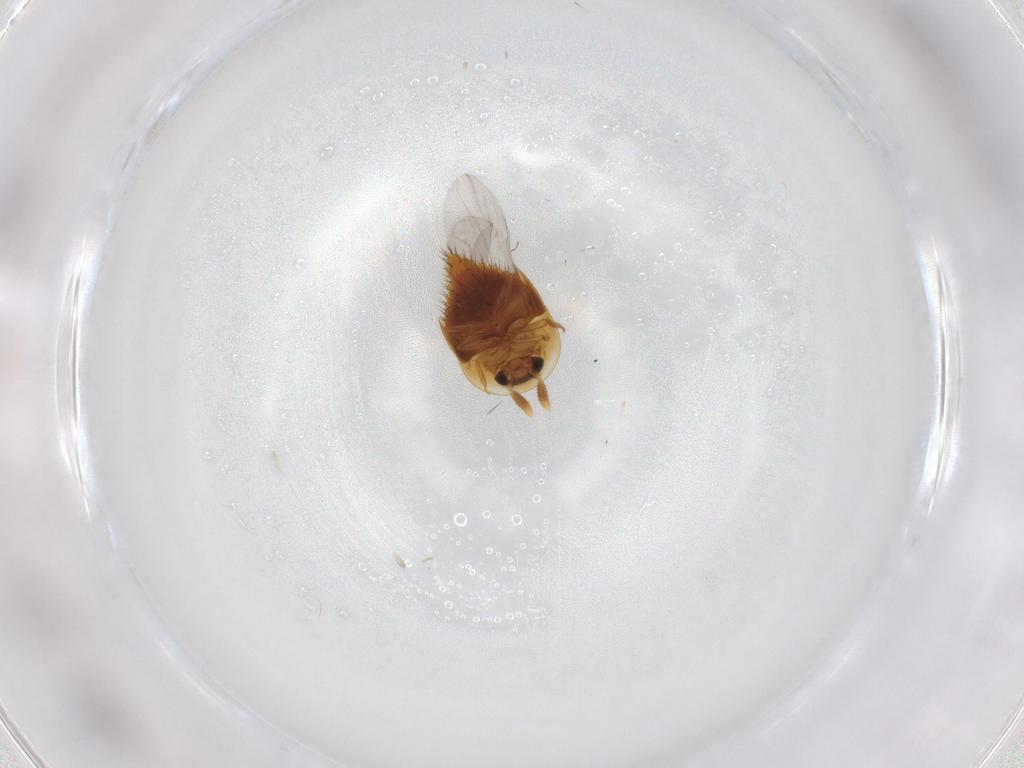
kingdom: Animalia
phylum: Arthropoda
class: Insecta
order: Coleoptera
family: Staphylinidae
